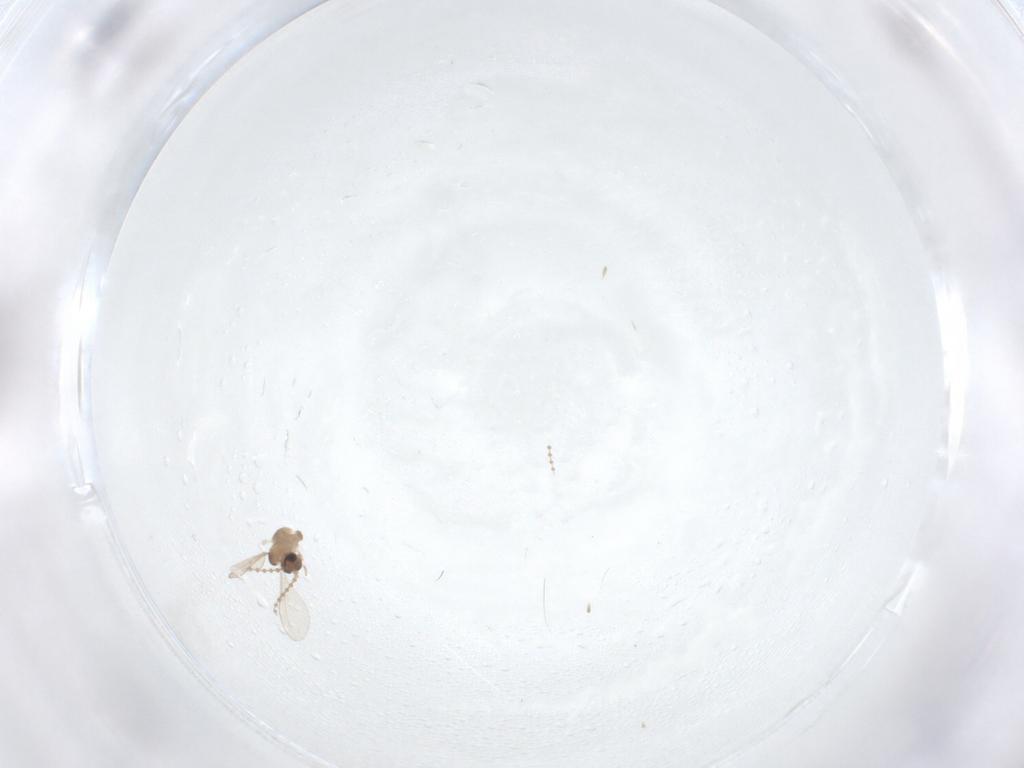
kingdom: Animalia
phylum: Arthropoda
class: Insecta
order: Diptera
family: Cecidomyiidae
